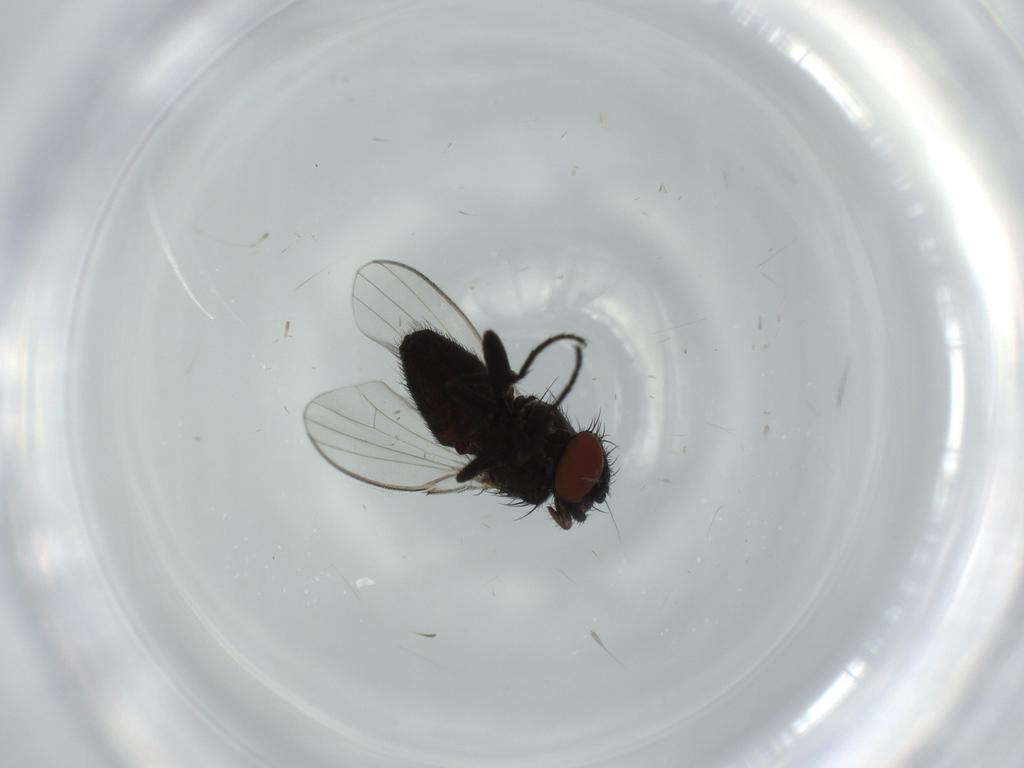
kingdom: Animalia
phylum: Arthropoda
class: Insecta
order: Diptera
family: Milichiidae
